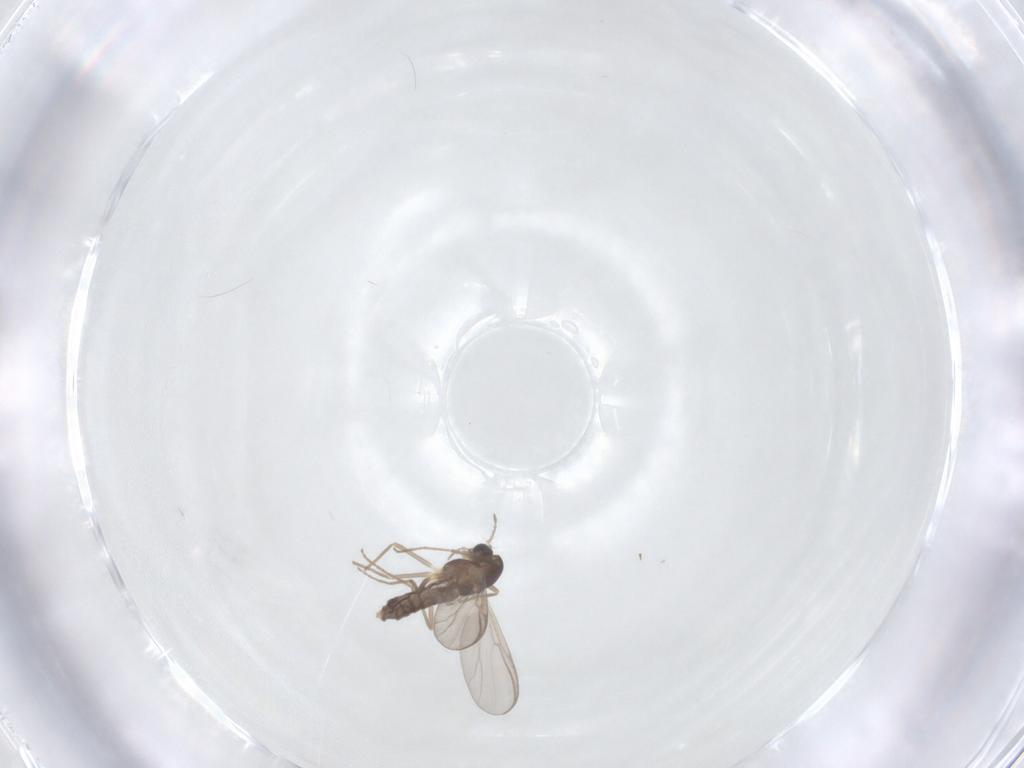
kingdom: Animalia
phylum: Arthropoda
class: Insecta
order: Diptera
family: Chironomidae
